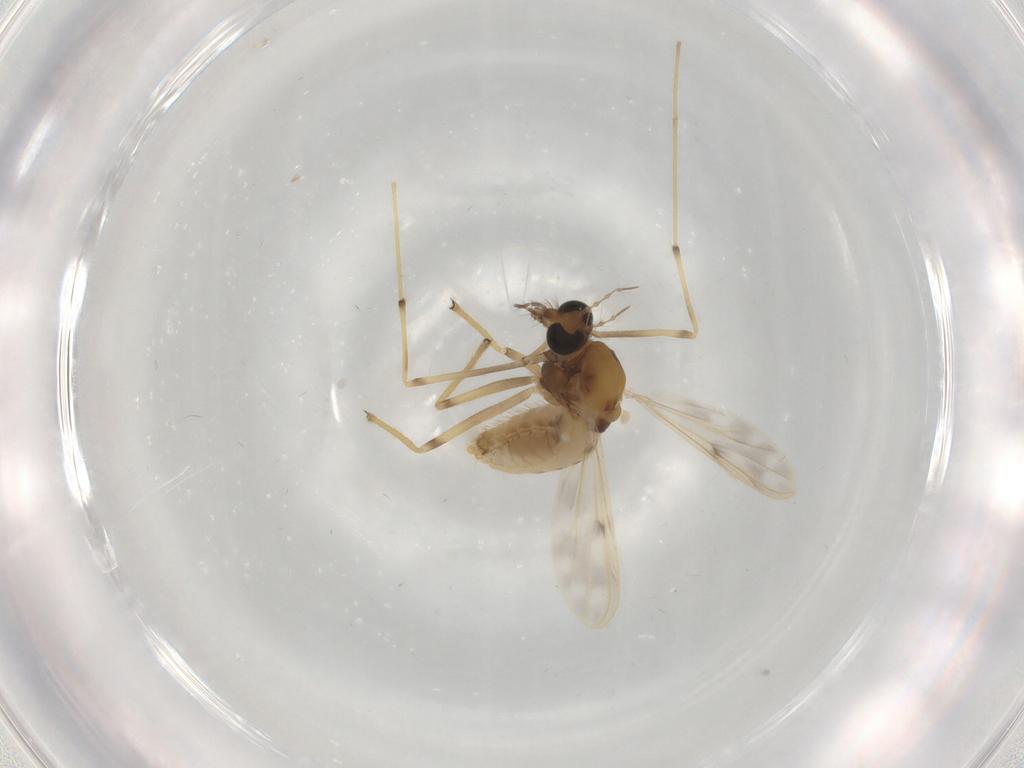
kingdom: Animalia
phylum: Arthropoda
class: Insecta
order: Diptera
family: Chironomidae
